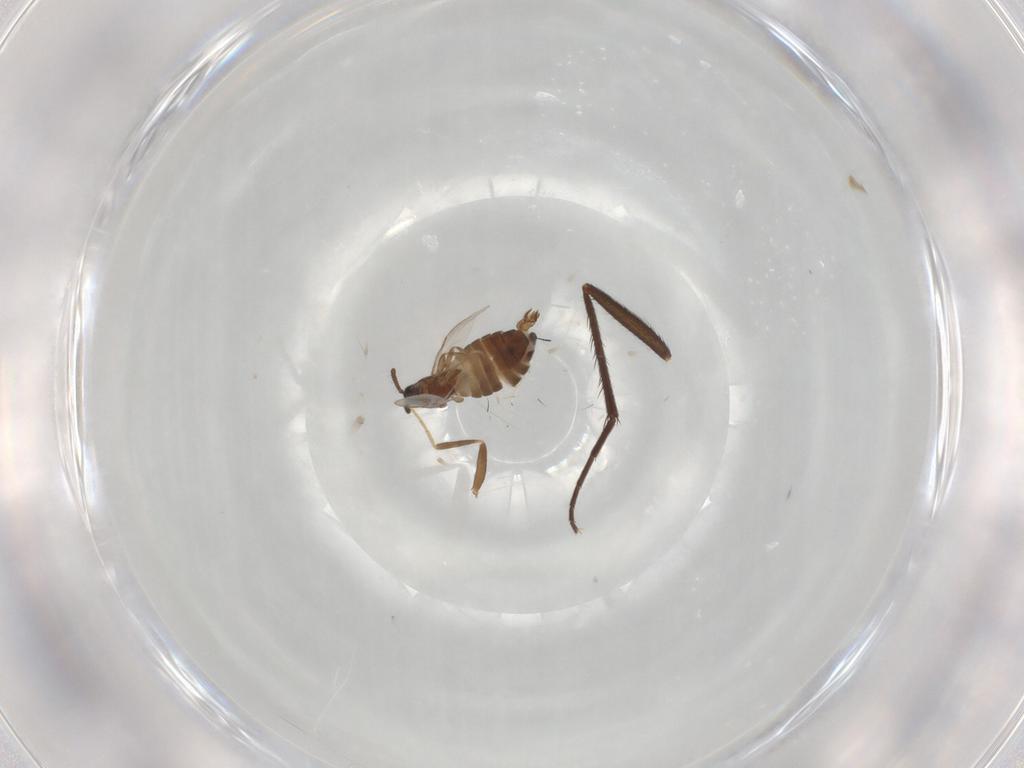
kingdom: Animalia
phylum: Arthropoda
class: Insecta
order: Diptera
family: Scatopsidae
